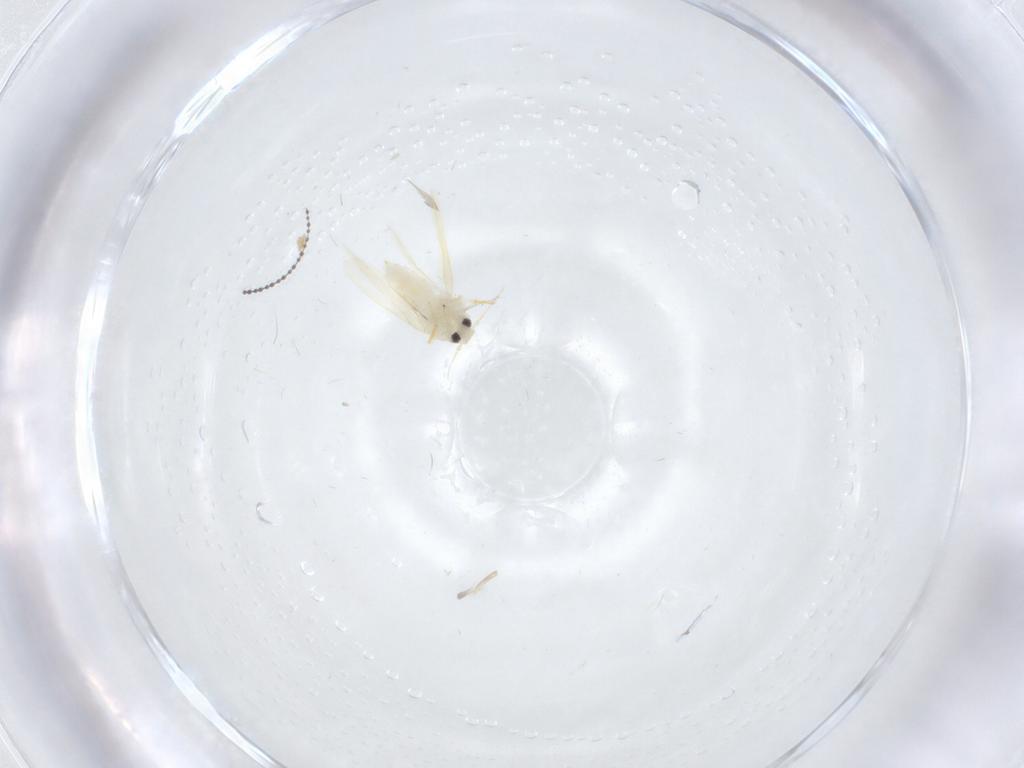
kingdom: Animalia
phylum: Arthropoda
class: Insecta
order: Diptera
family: Cecidomyiidae
